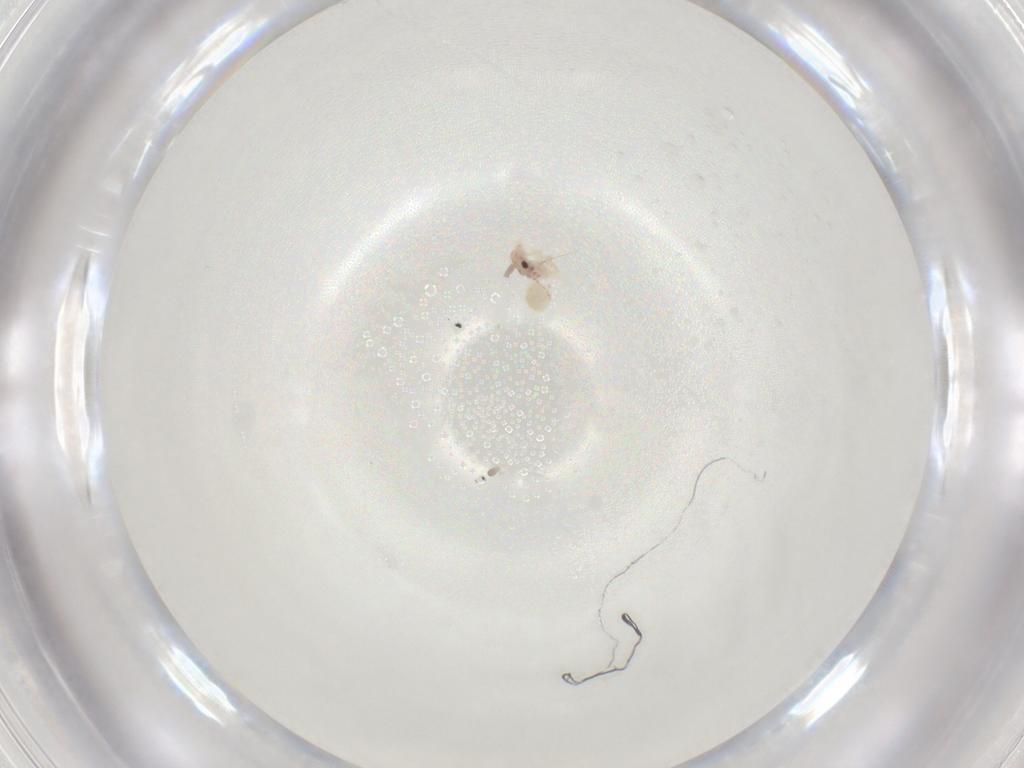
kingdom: Animalia
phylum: Arthropoda
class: Insecta
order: Psocodea
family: Trogiidae
